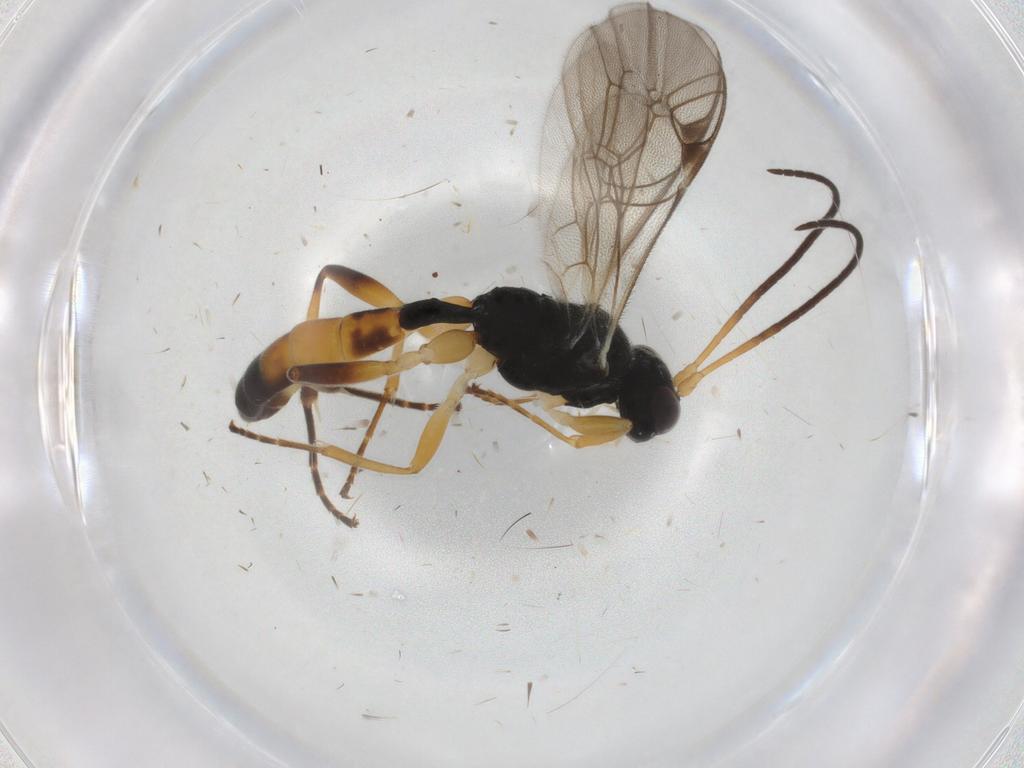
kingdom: Animalia
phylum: Arthropoda
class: Insecta
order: Hymenoptera
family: Ichneumonidae
